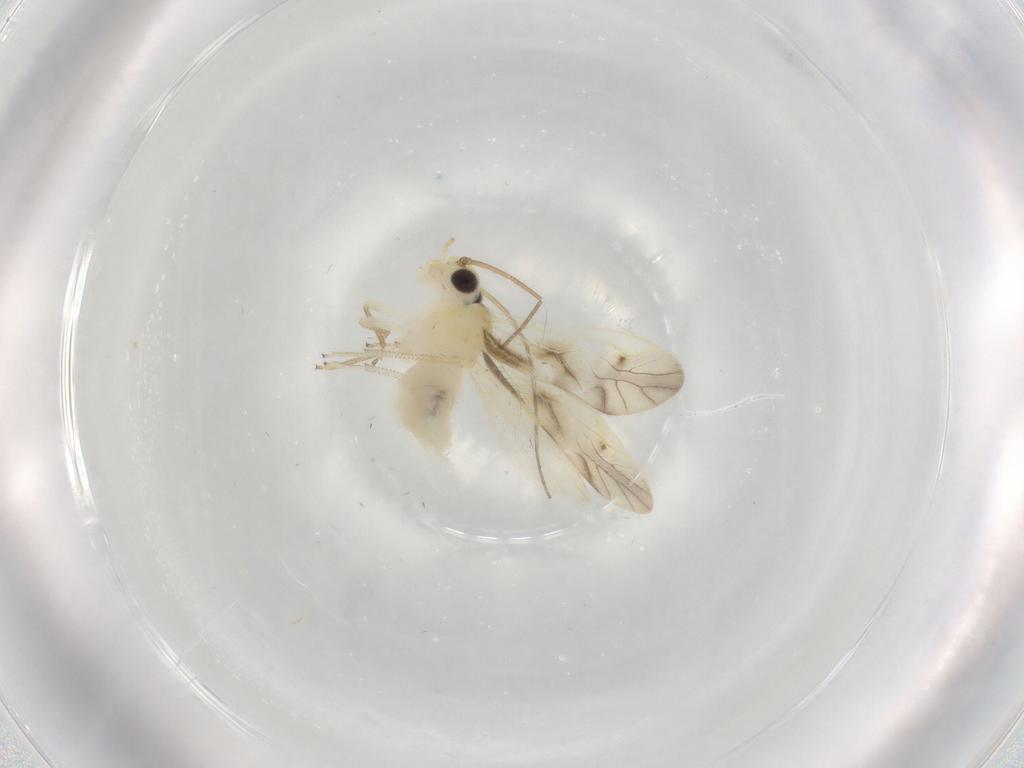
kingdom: Animalia
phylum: Arthropoda
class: Insecta
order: Psocodea
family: Caeciliusidae
